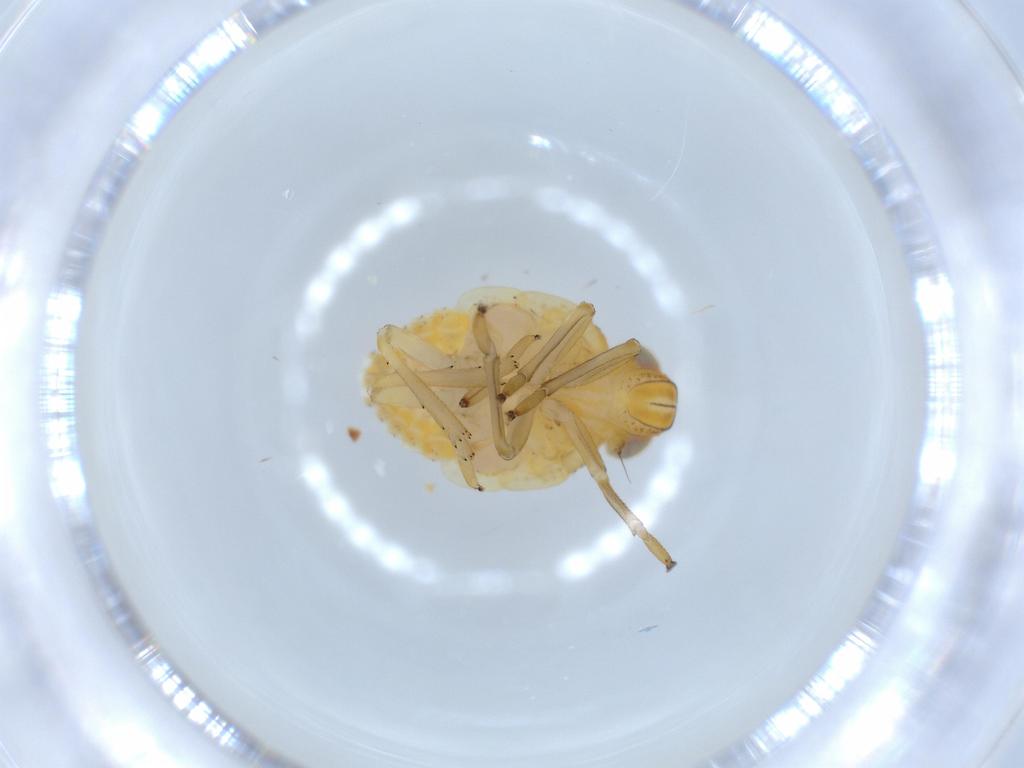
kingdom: Animalia
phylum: Arthropoda
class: Insecta
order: Hemiptera
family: Issidae
